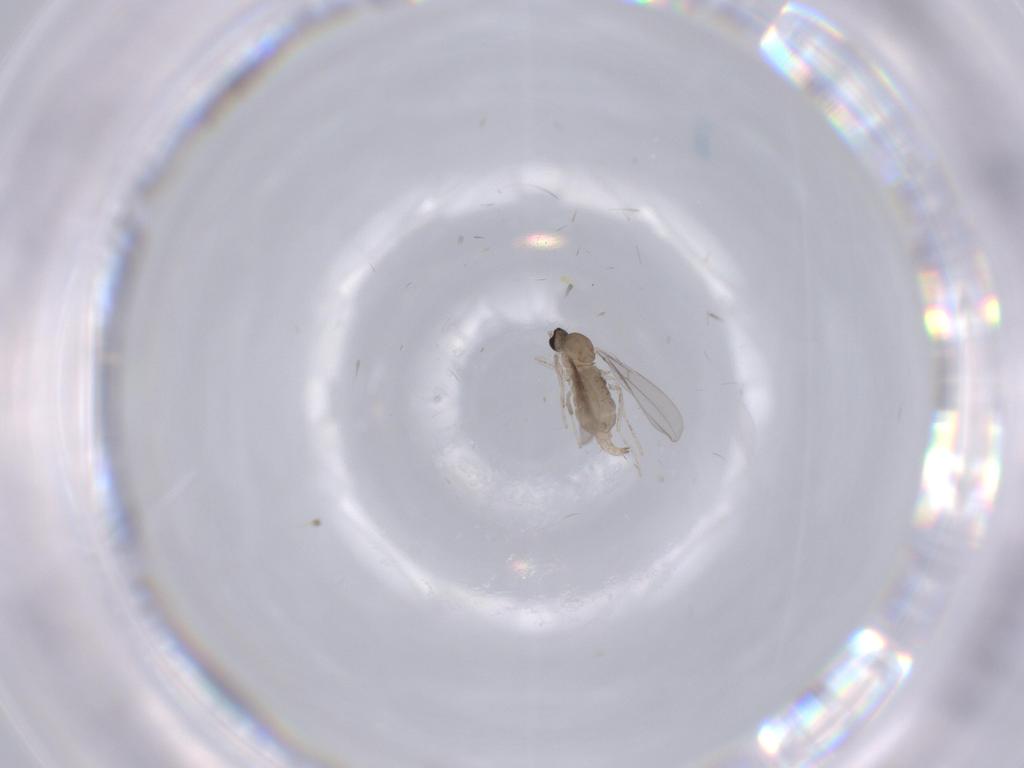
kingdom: Animalia
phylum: Arthropoda
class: Insecta
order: Diptera
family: Cecidomyiidae
